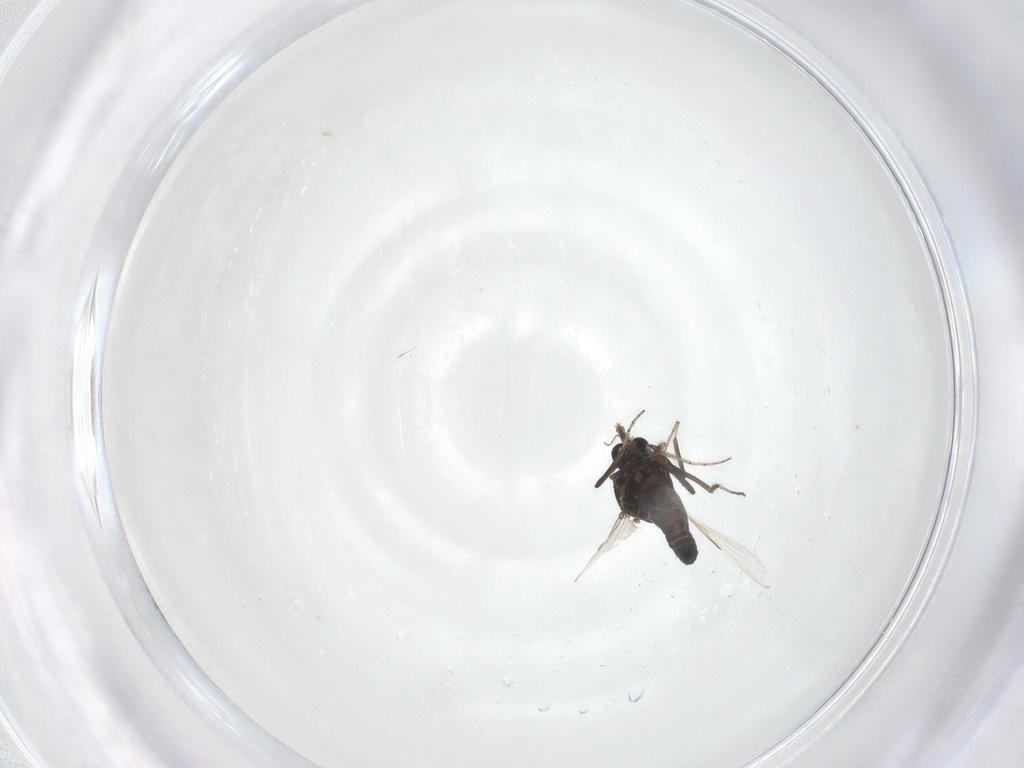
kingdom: Animalia
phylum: Arthropoda
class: Insecta
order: Diptera
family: Ceratopogonidae
